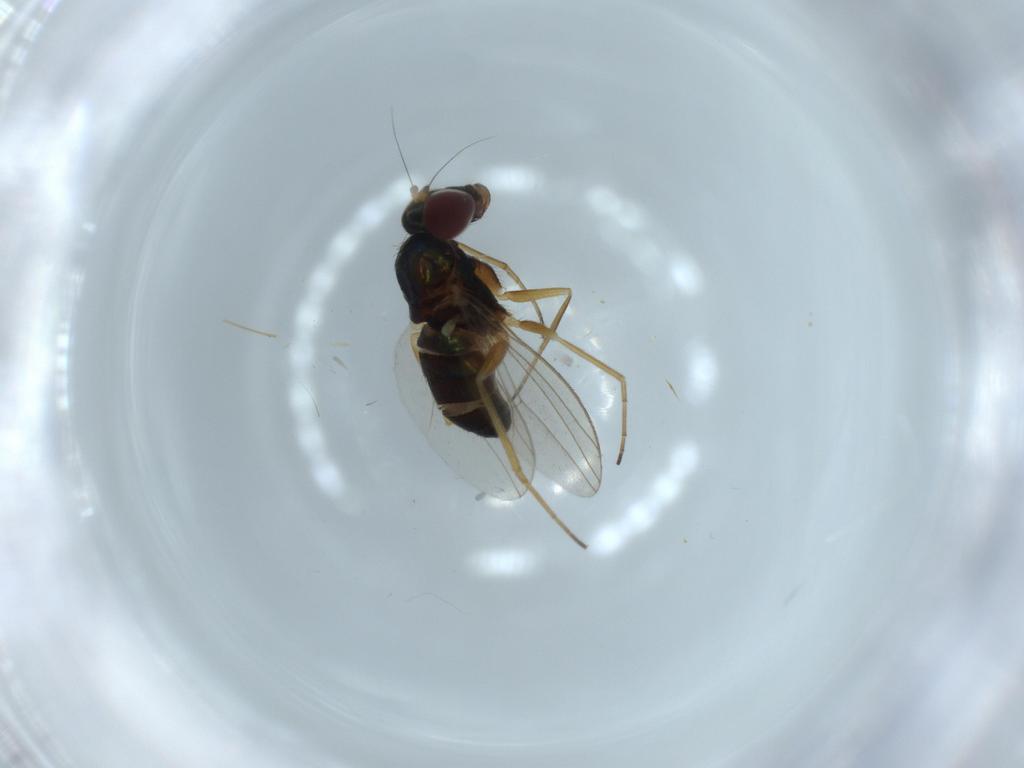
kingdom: Animalia
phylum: Arthropoda
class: Insecta
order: Diptera
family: Dolichopodidae
